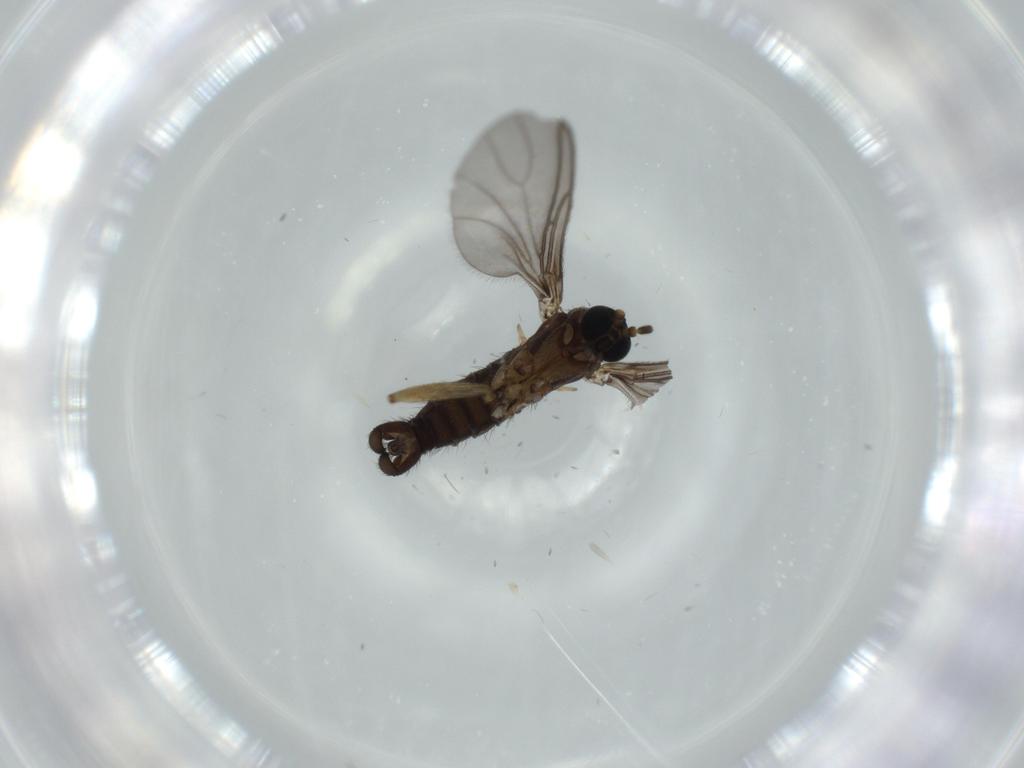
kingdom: Animalia
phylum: Arthropoda
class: Insecta
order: Diptera
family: Sciaridae
